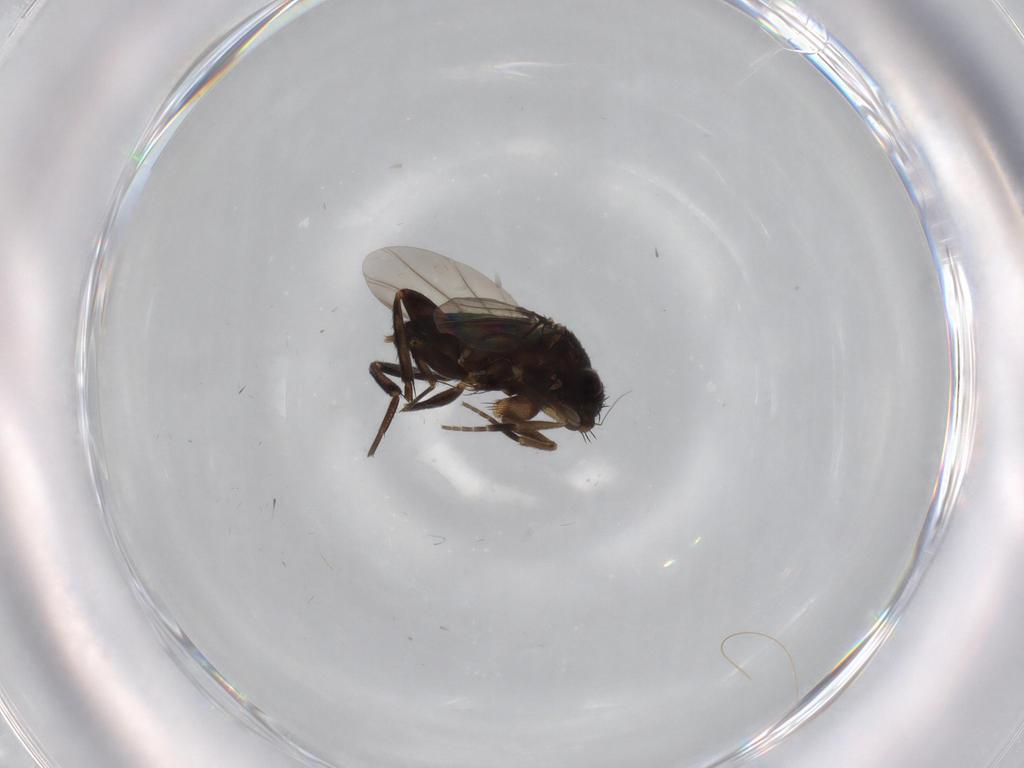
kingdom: Animalia
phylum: Arthropoda
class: Insecta
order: Diptera
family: Phoridae
